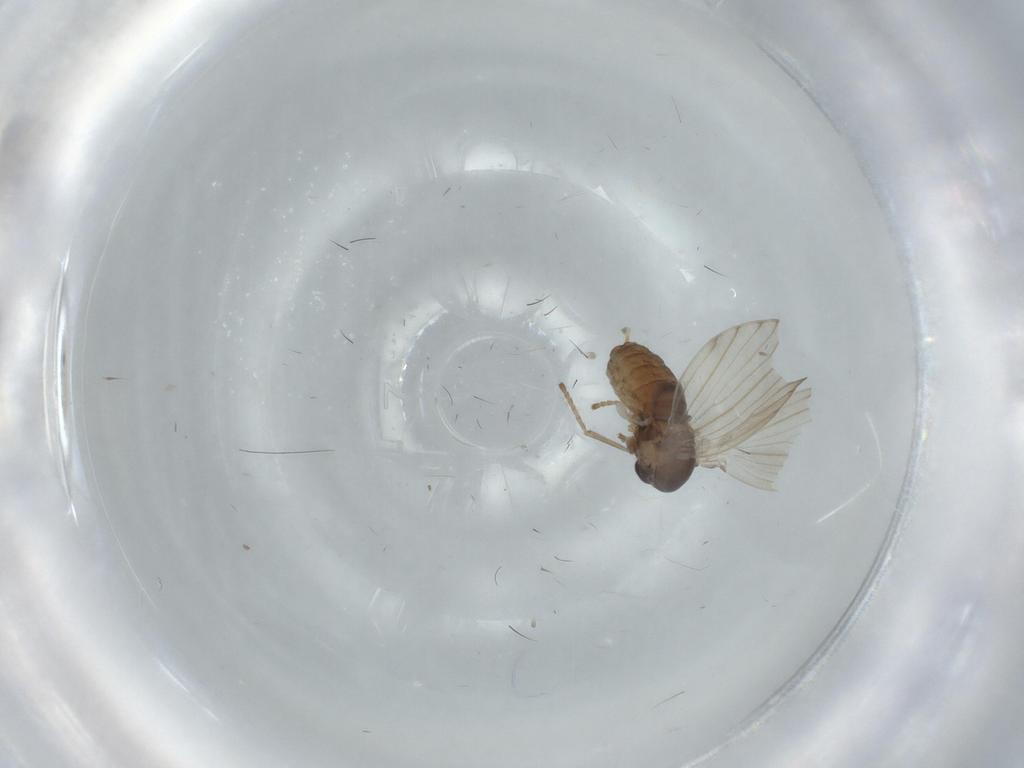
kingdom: Animalia
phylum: Arthropoda
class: Insecta
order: Diptera
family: Psychodidae
